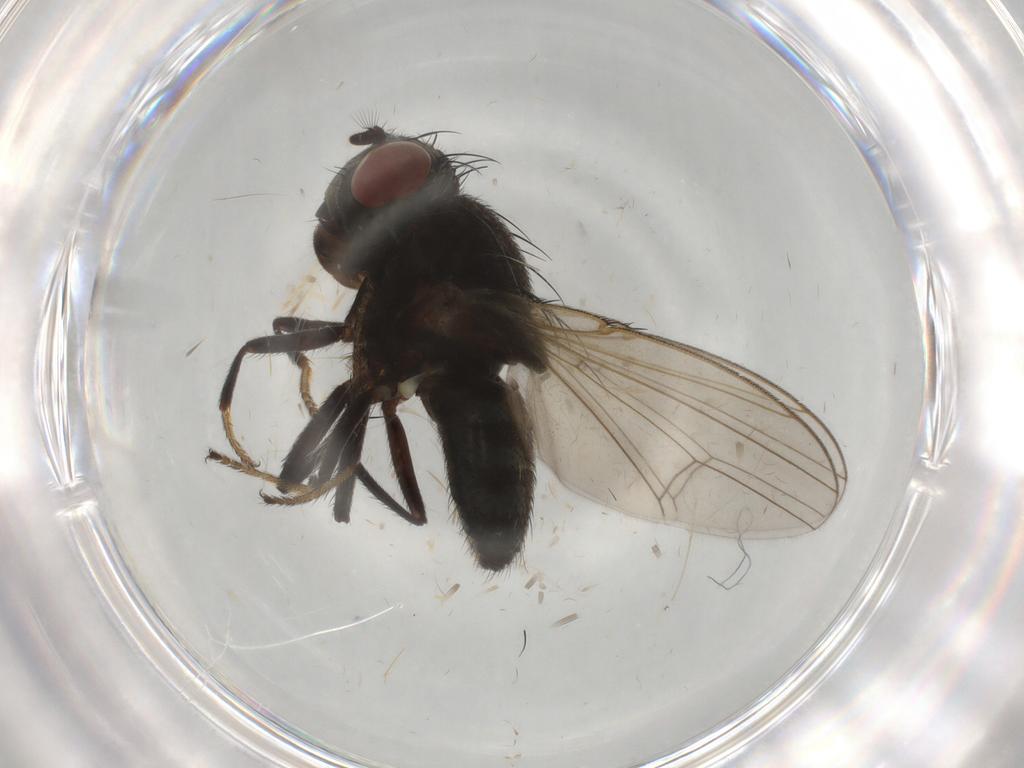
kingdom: Animalia
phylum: Arthropoda
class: Insecta
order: Diptera
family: Ephydridae
